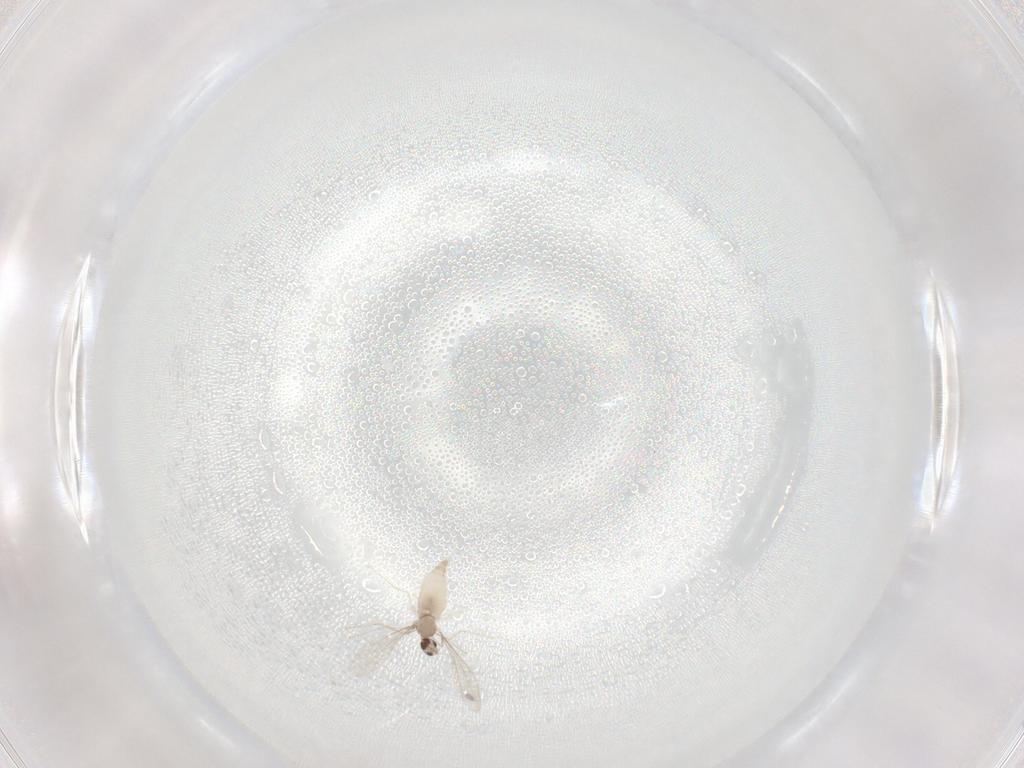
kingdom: Animalia
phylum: Arthropoda
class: Insecta
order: Diptera
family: Cecidomyiidae
